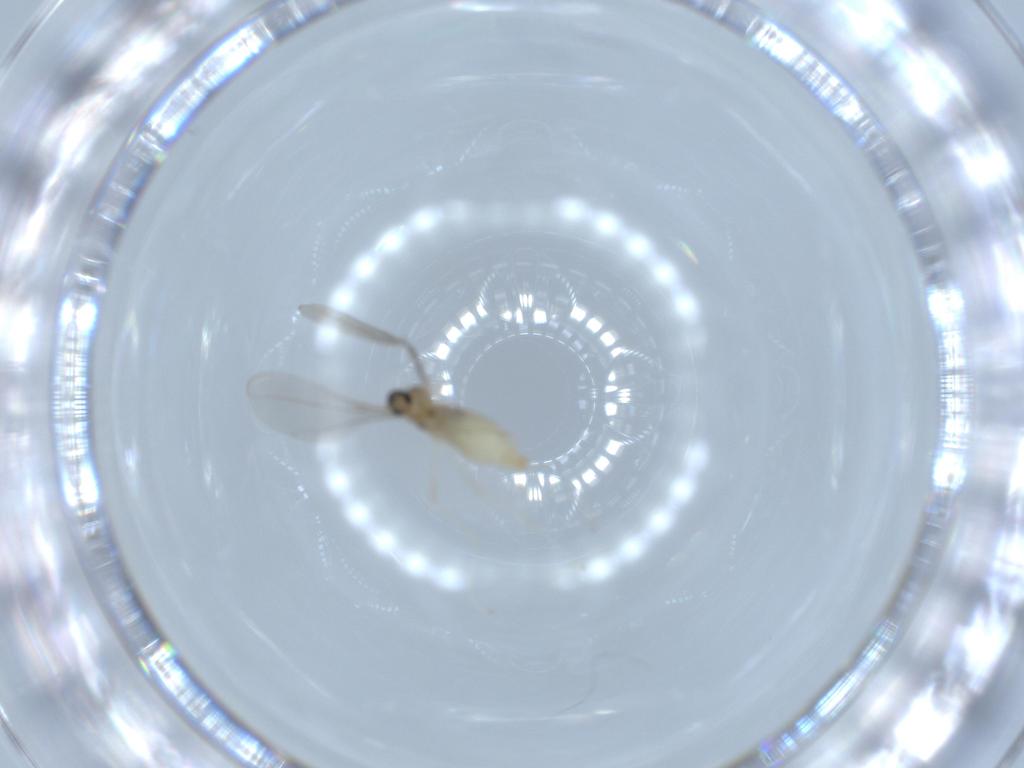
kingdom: Animalia
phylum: Arthropoda
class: Insecta
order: Diptera
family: Cecidomyiidae
